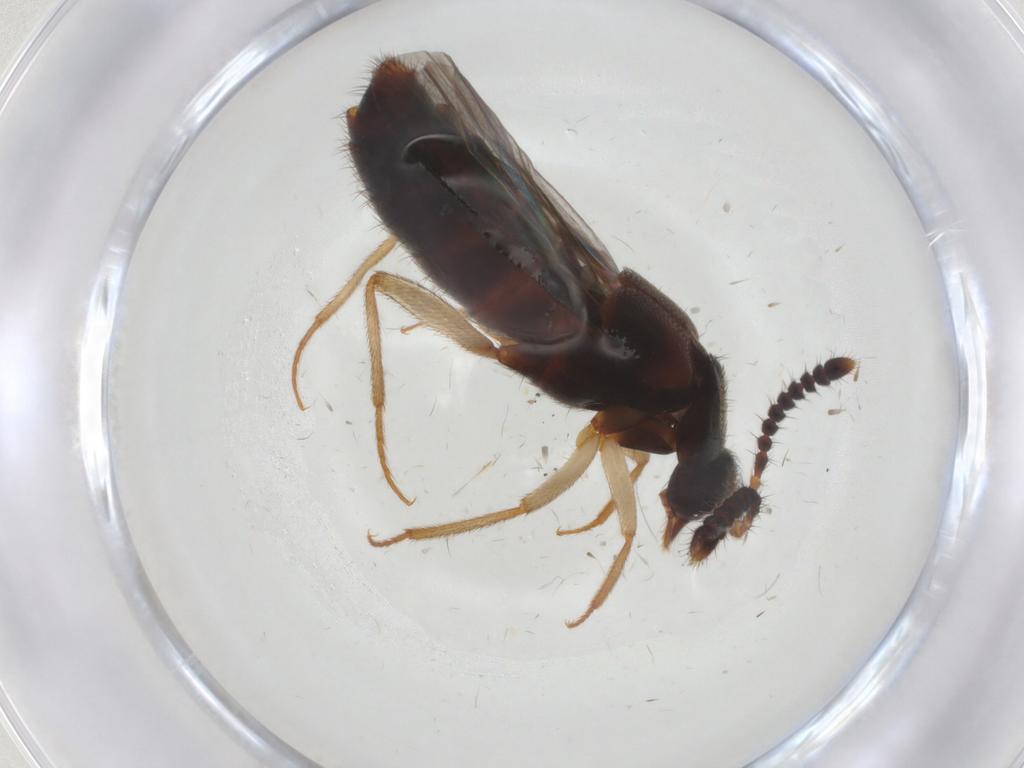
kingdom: Animalia
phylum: Arthropoda
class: Insecta
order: Coleoptera
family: Staphylinidae
